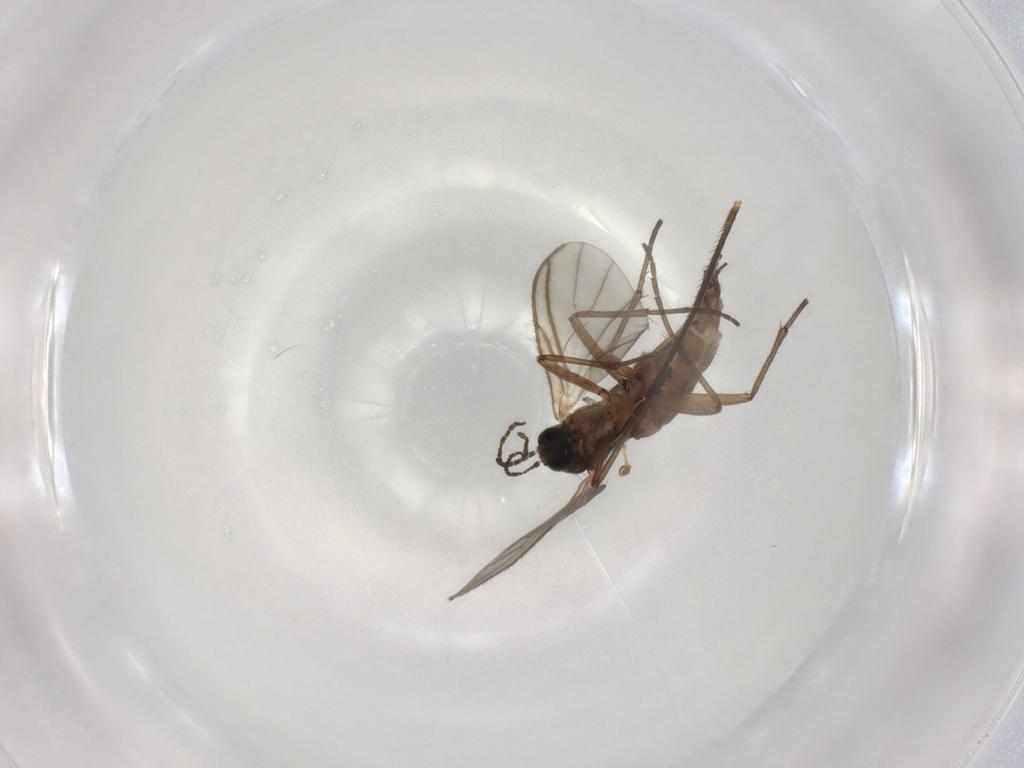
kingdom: Animalia
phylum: Arthropoda
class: Insecta
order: Diptera
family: Sciaridae
